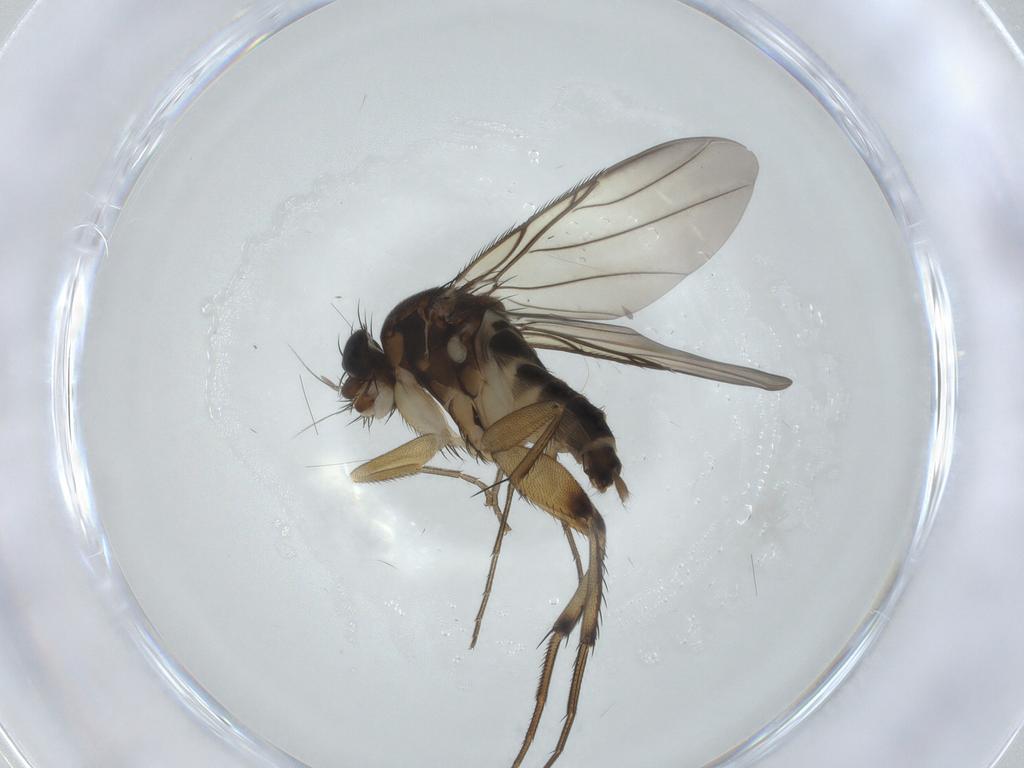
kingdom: Animalia
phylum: Arthropoda
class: Insecta
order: Diptera
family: Phoridae
